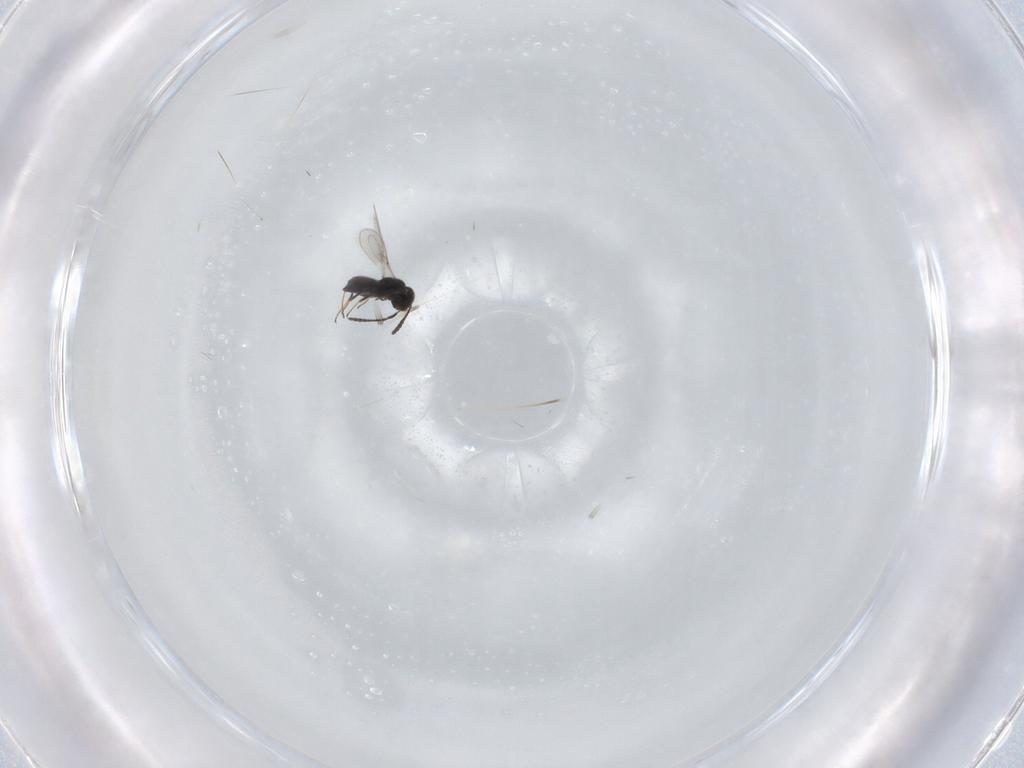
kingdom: Animalia
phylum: Arthropoda
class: Insecta
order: Hymenoptera
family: Scelionidae
